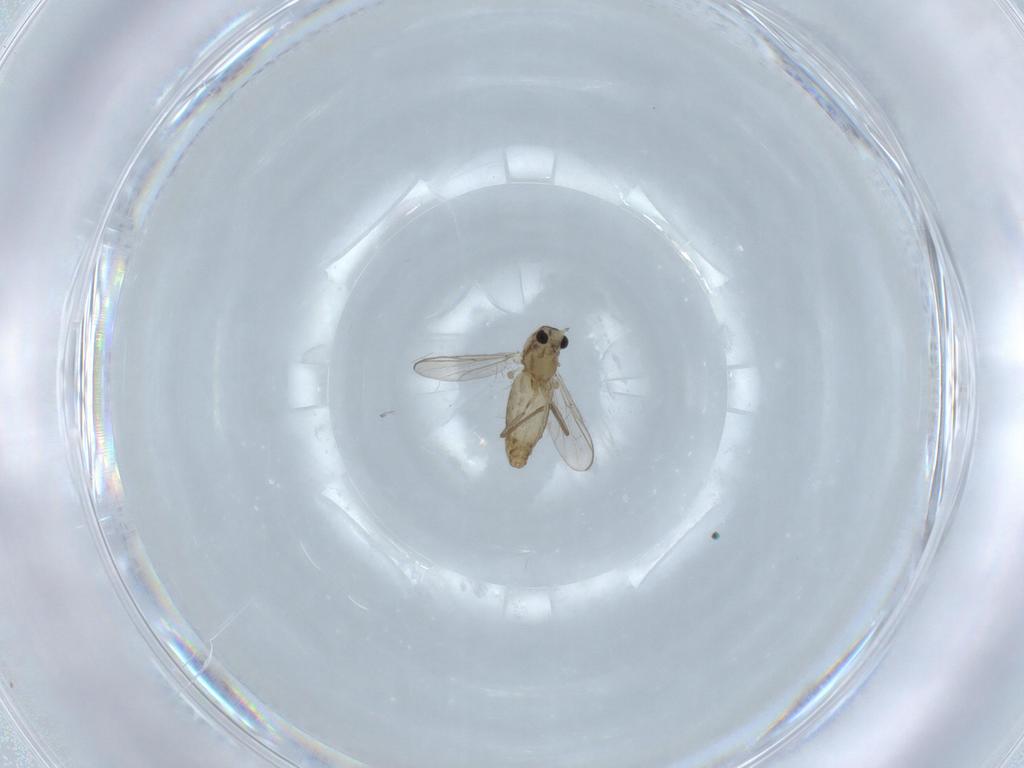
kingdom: Animalia
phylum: Arthropoda
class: Insecta
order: Diptera
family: Chironomidae
